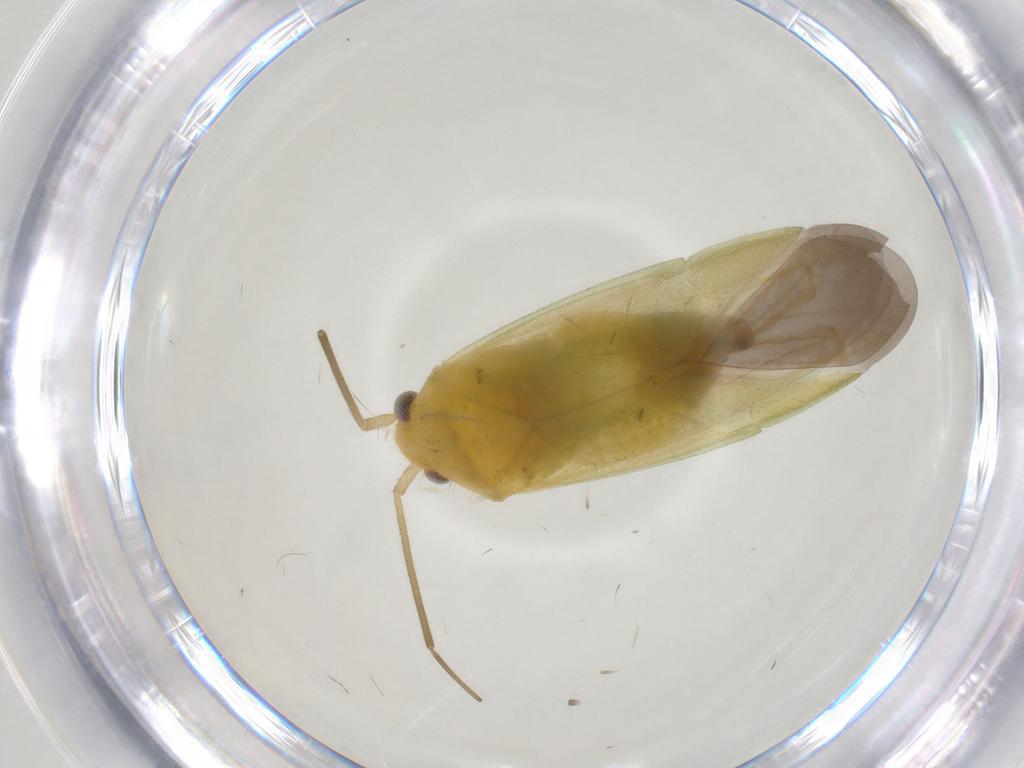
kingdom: Animalia
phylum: Arthropoda
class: Insecta
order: Hemiptera
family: Miridae
